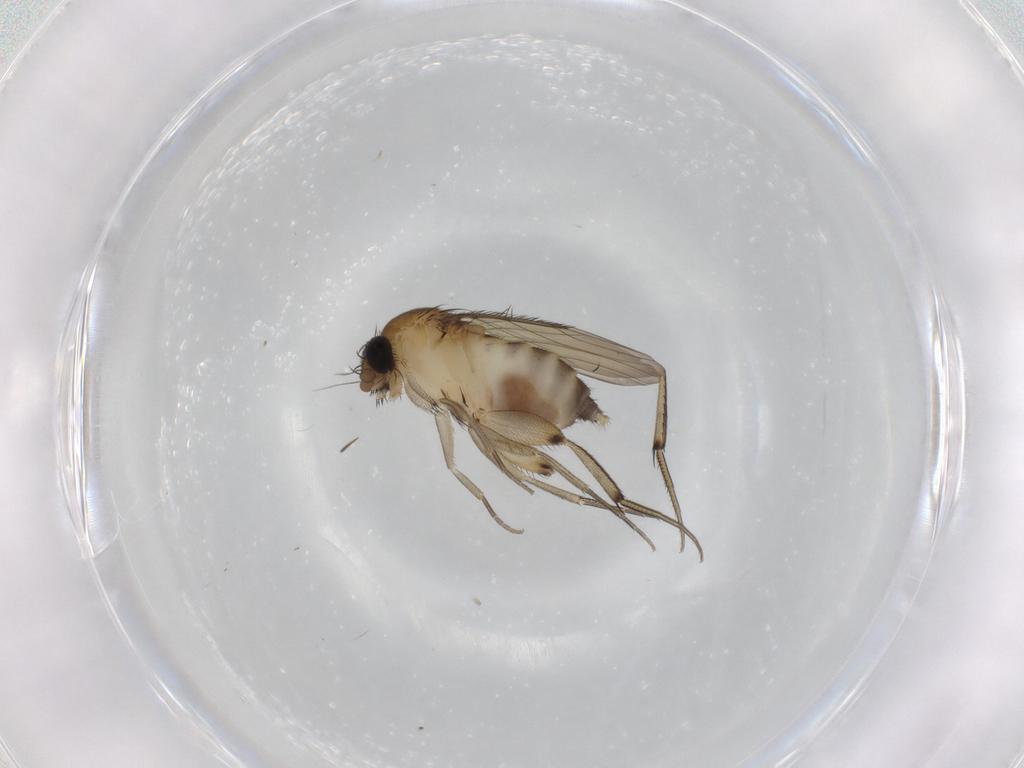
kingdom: Animalia
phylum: Arthropoda
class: Insecta
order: Diptera
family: Phoridae
